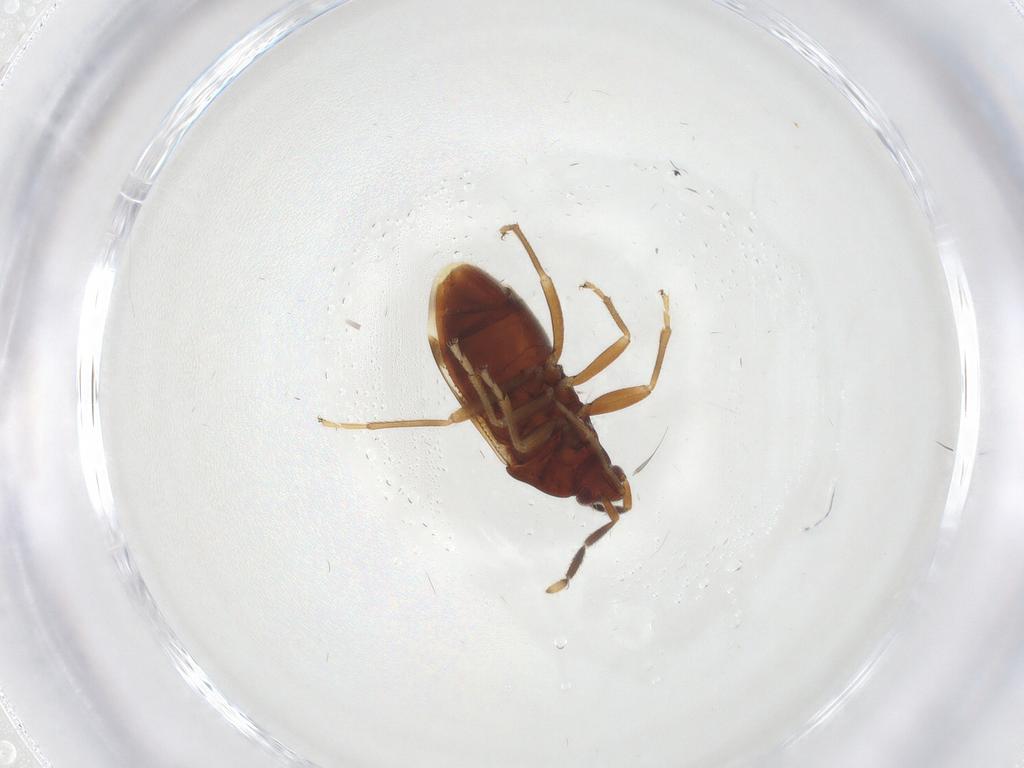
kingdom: Animalia
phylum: Arthropoda
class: Insecta
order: Hemiptera
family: Rhyparochromidae
